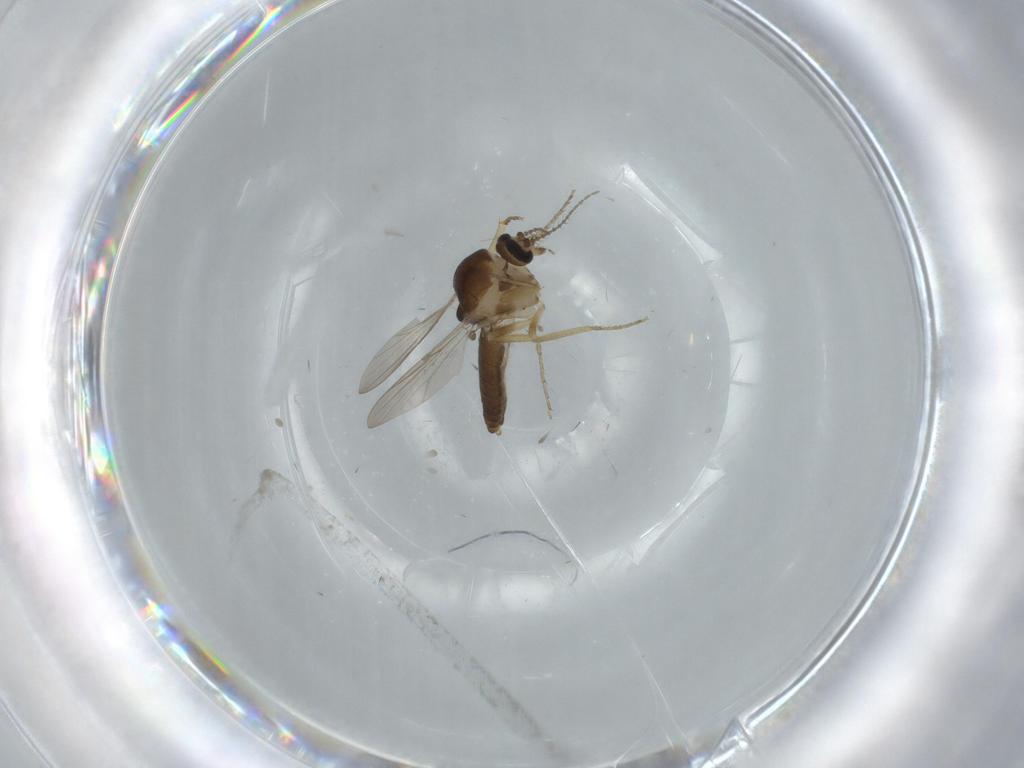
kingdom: Animalia
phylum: Arthropoda
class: Insecta
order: Diptera
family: Ceratopogonidae
